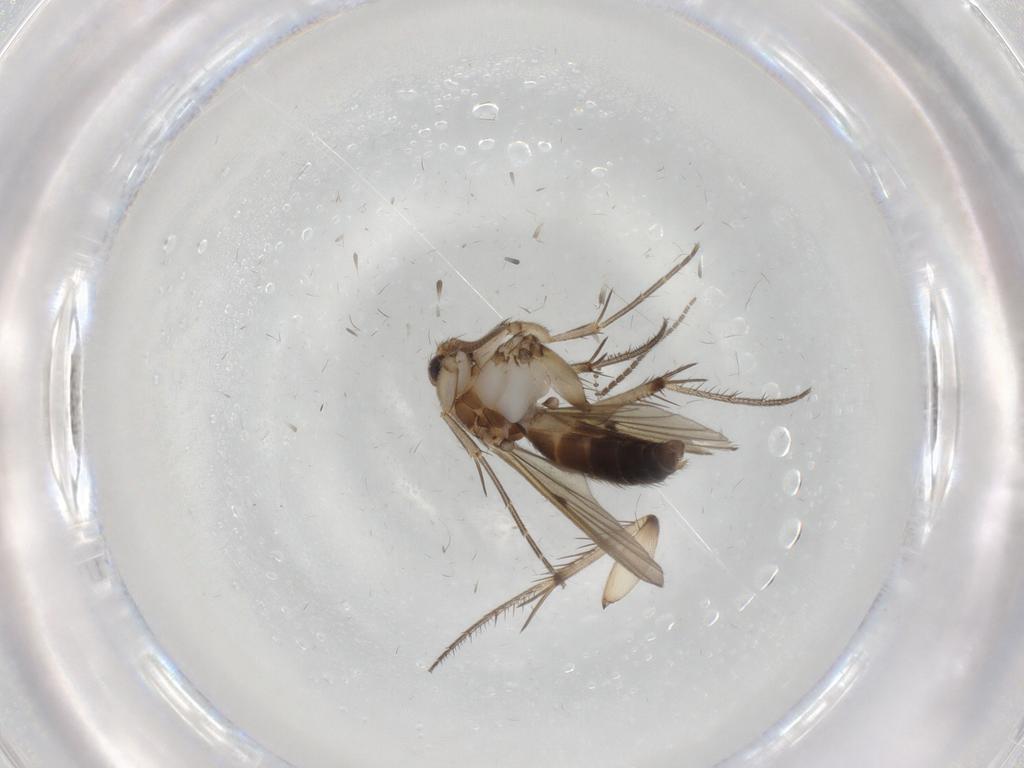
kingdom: Animalia
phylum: Arthropoda
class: Insecta
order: Diptera
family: Mycetophilidae
